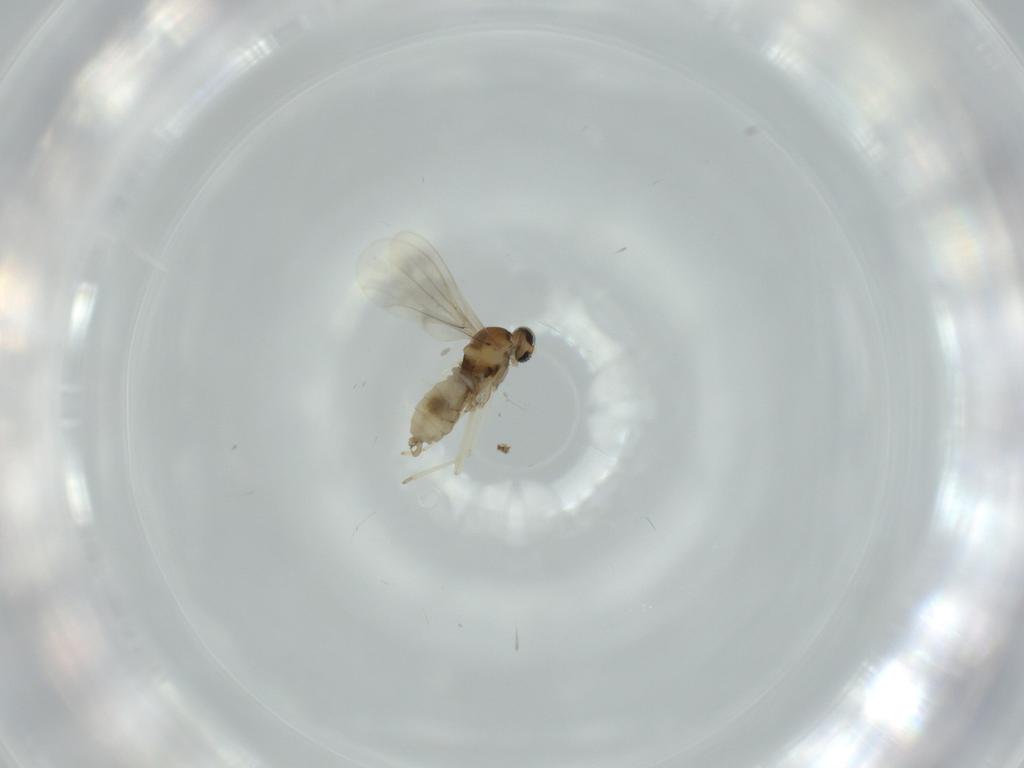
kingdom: Animalia
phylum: Arthropoda
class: Insecta
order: Diptera
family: Cecidomyiidae
